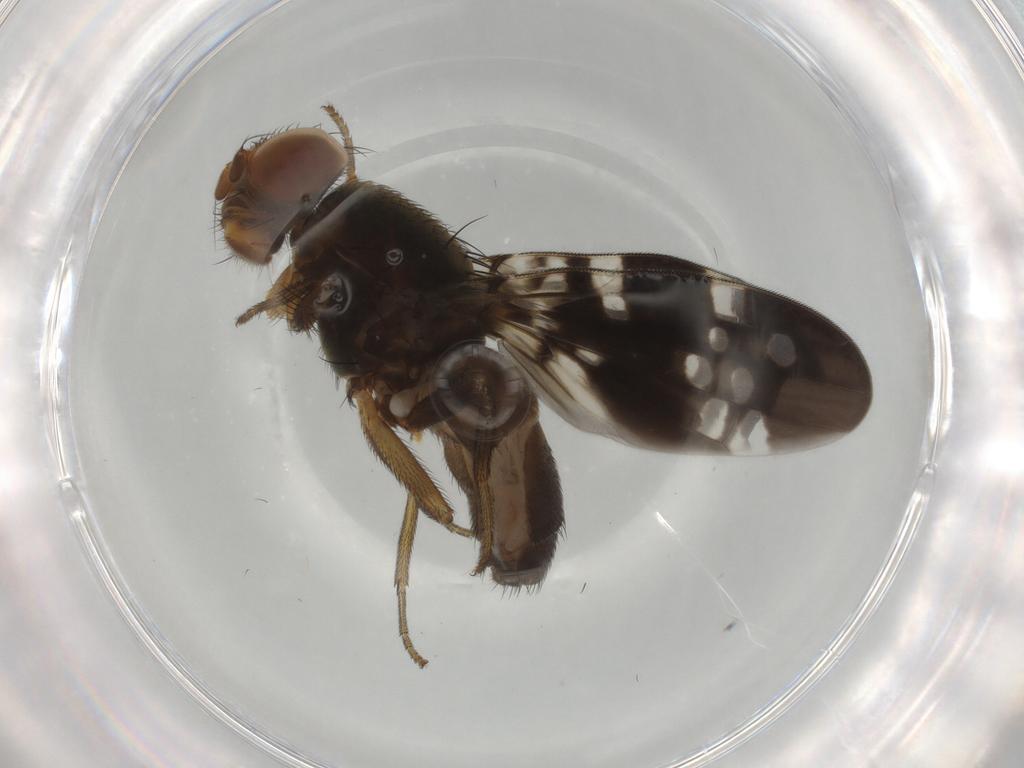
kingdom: Animalia
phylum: Arthropoda
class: Insecta
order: Diptera
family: Ulidiidae
